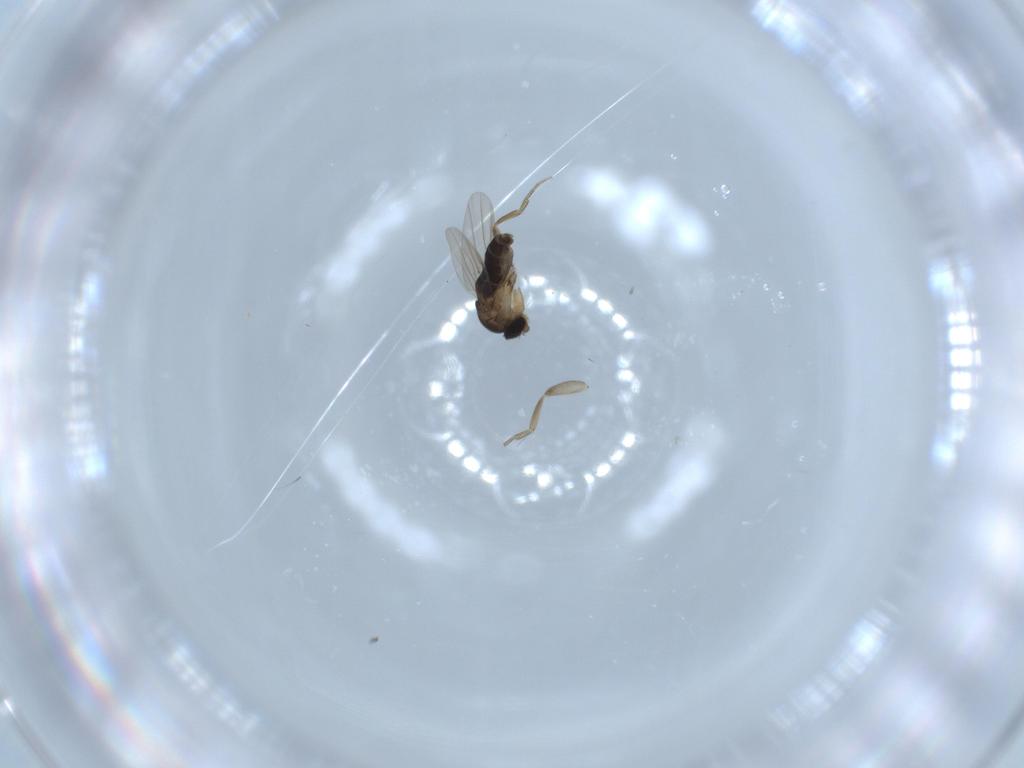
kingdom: Animalia
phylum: Arthropoda
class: Insecta
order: Diptera
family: Phoridae
